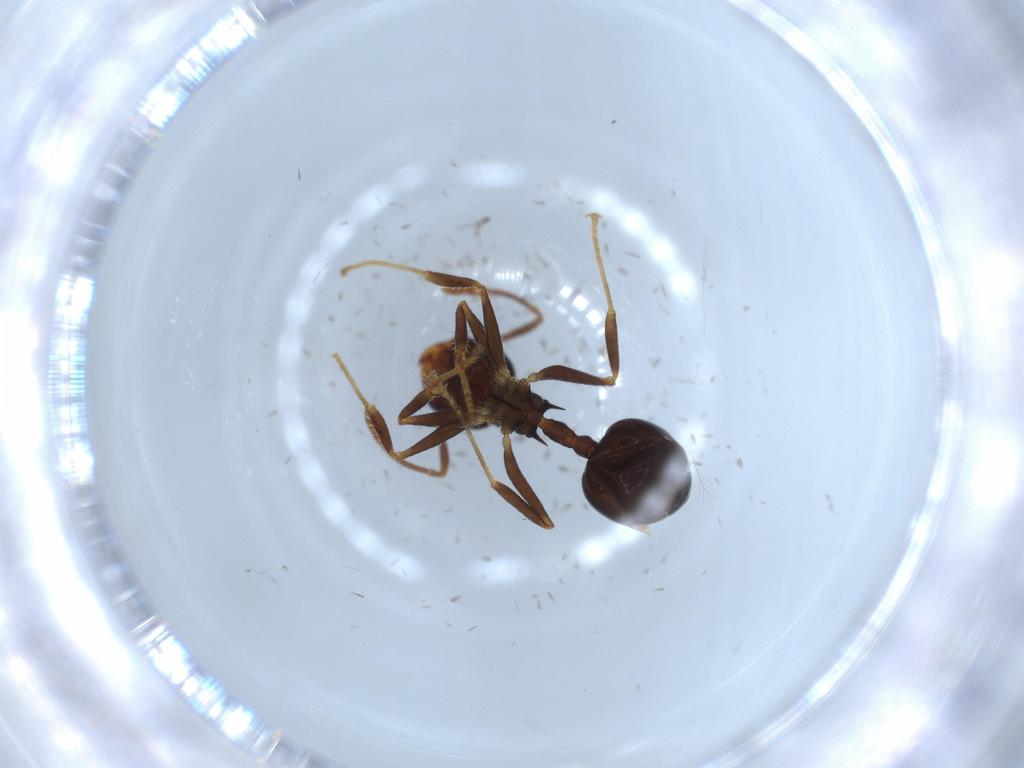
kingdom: Animalia
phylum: Arthropoda
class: Insecta
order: Hymenoptera
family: Formicidae
